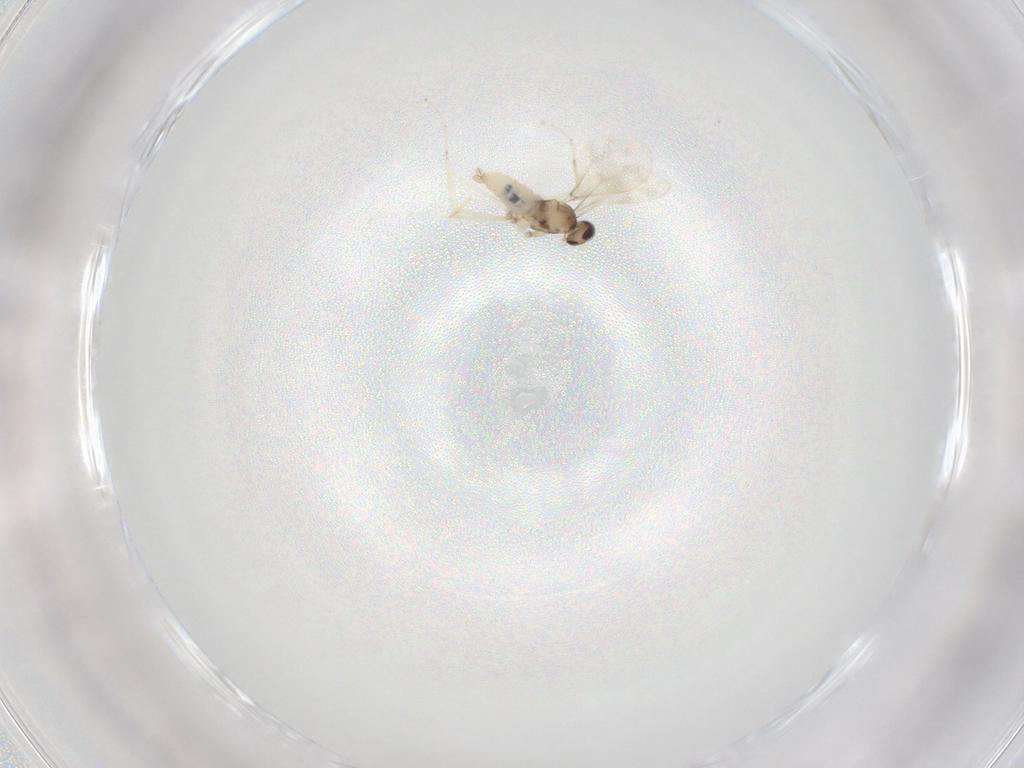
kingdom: Animalia
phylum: Arthropoda
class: Insecta
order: Diptera
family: Cecidomyiidae
